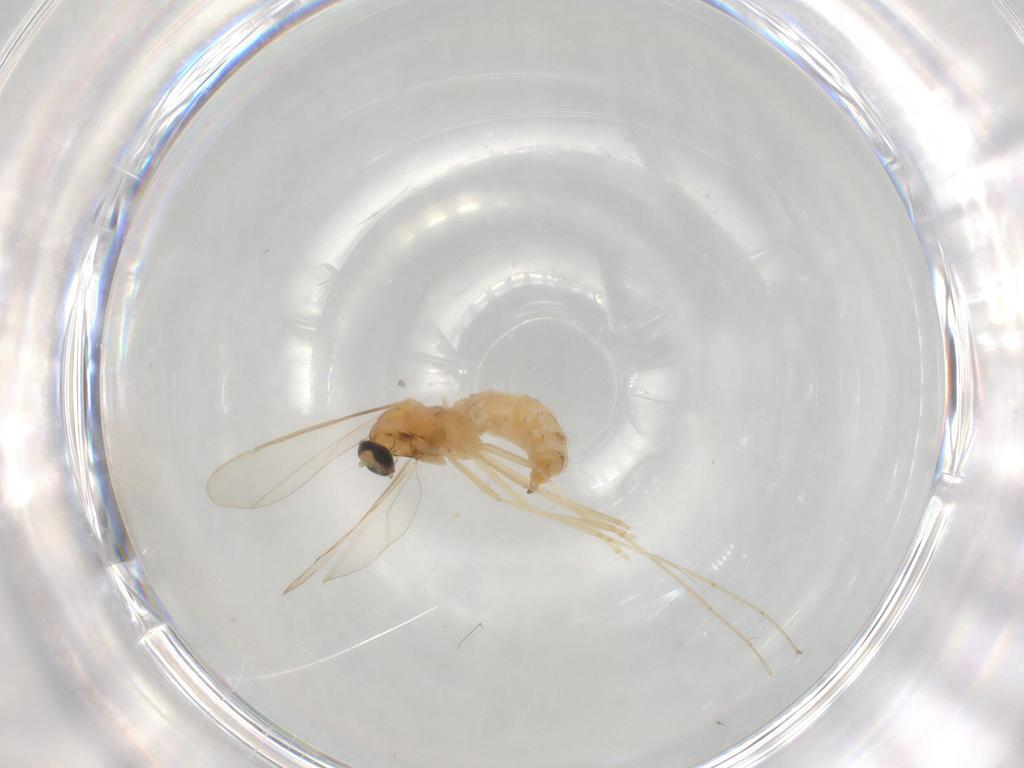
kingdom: Animalia
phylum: Arthropoda
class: Insecta
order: Diptera
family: Cecidomyiidae
